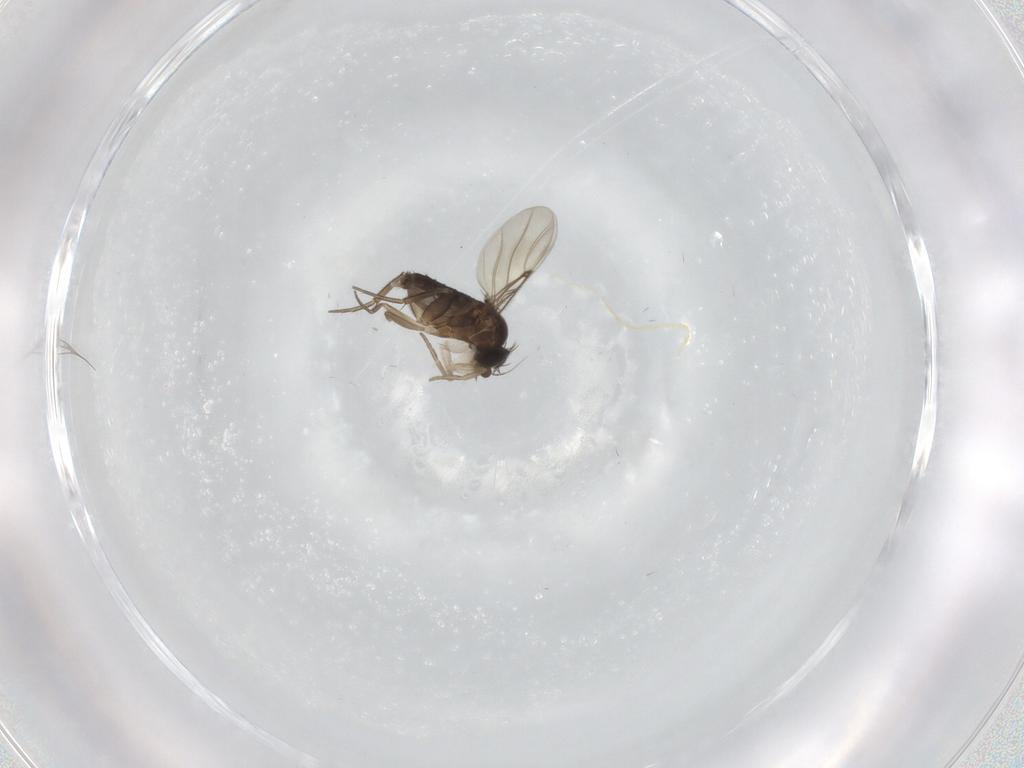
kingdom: Animalia
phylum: Arthropoda
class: Insecta
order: Diptera
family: Phoridae
